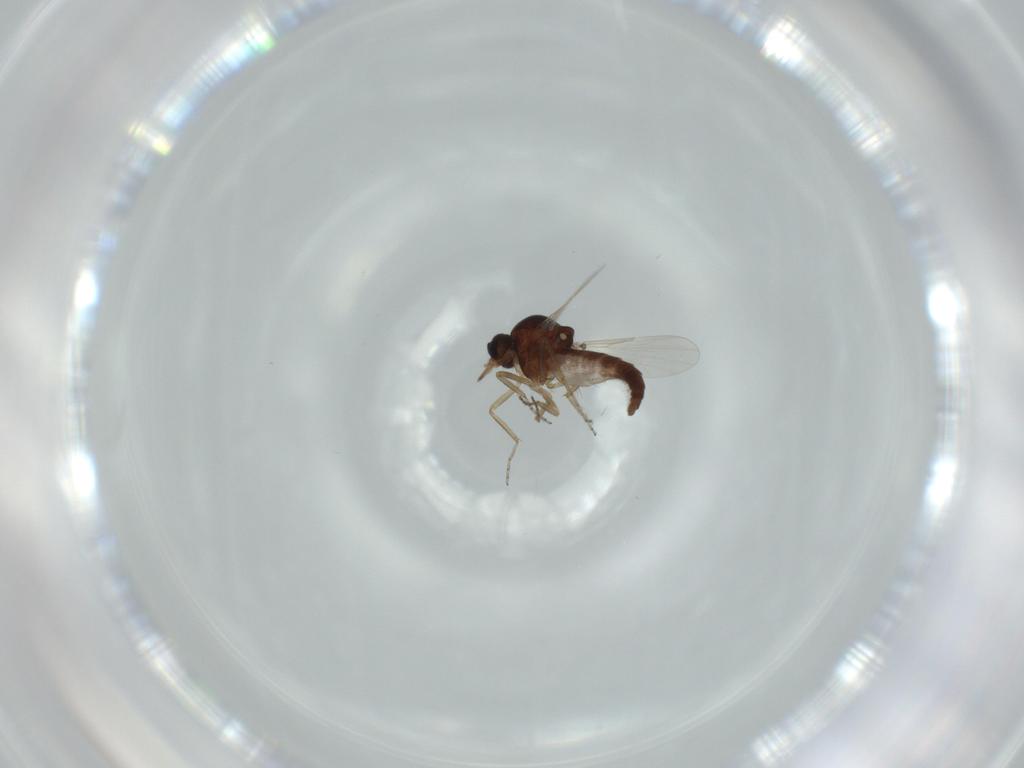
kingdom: Animalia
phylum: Arthropoda
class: Insecta
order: Diptera
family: Ceratopogonidae
